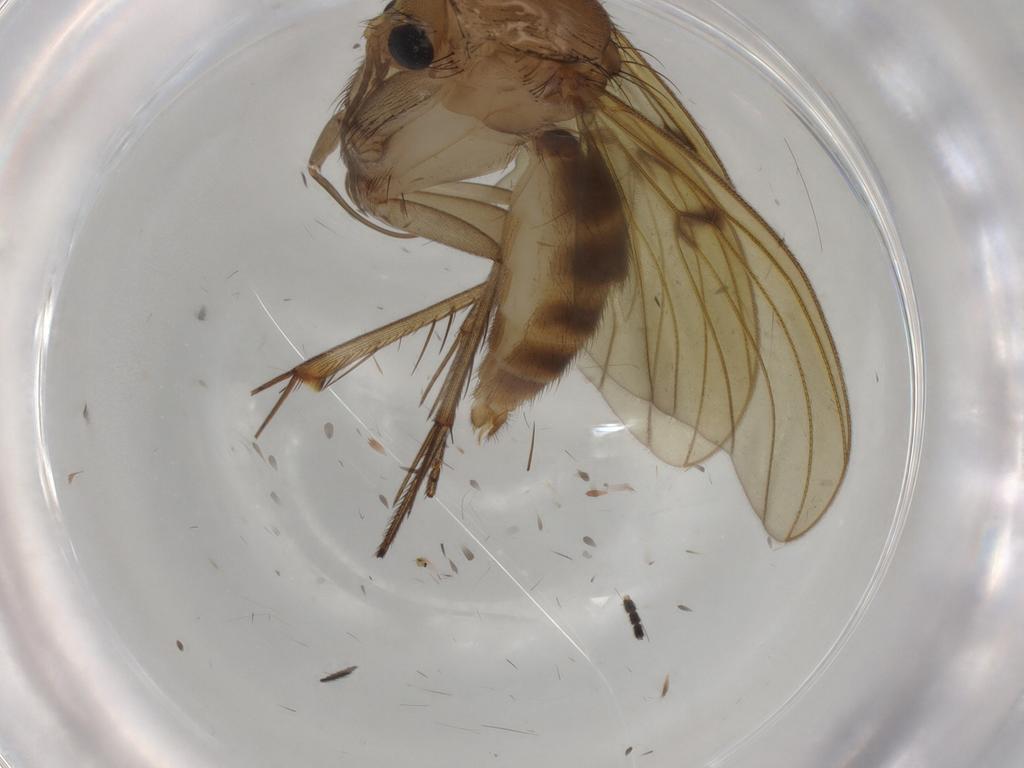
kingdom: Animalia
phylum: Arthropoda
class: Insecta
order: Diptera
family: Mycetophilidae
